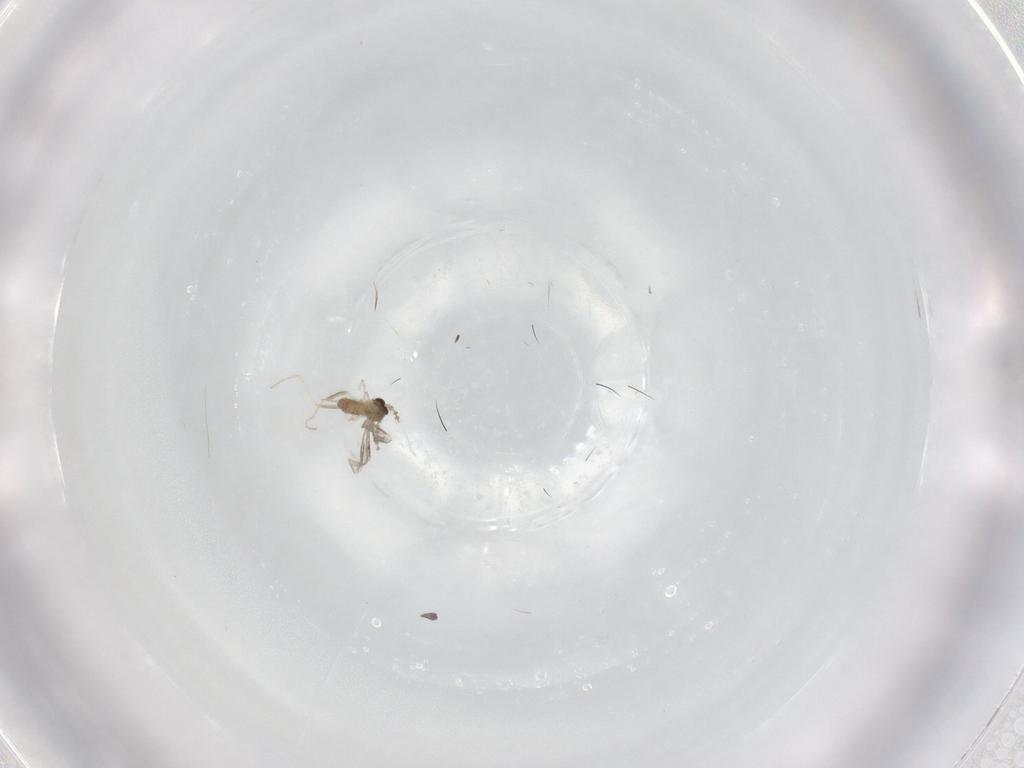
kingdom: Animalia
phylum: Arthropoda
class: Insecta
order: Diptera
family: Cecidomyiidae
